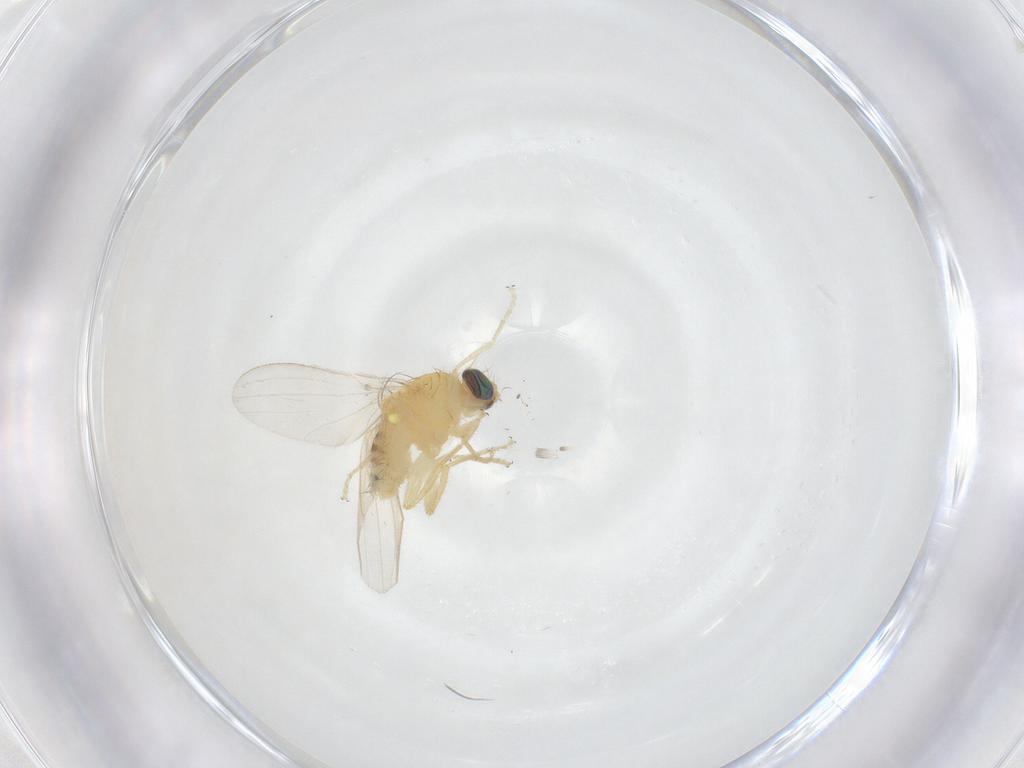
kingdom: Animalia
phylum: Arthropoda
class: Insecta
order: Diptera
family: Chyromyidae
